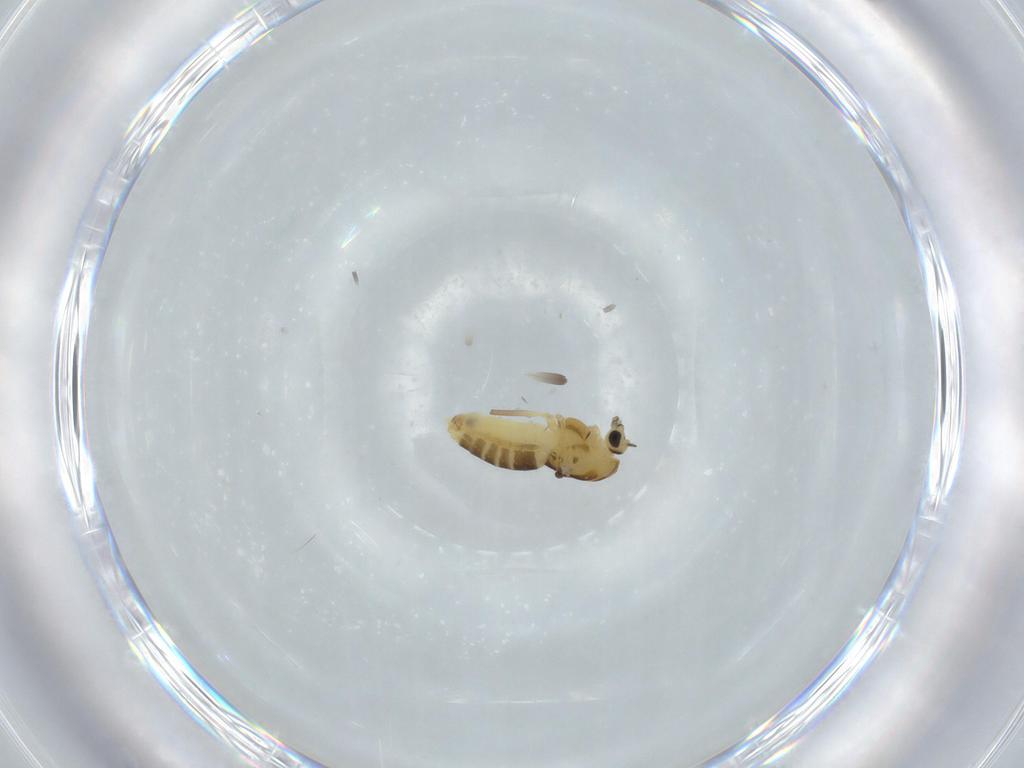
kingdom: Animalia
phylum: Arthropoda
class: Insecta
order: Diptera
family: Chironomidae
